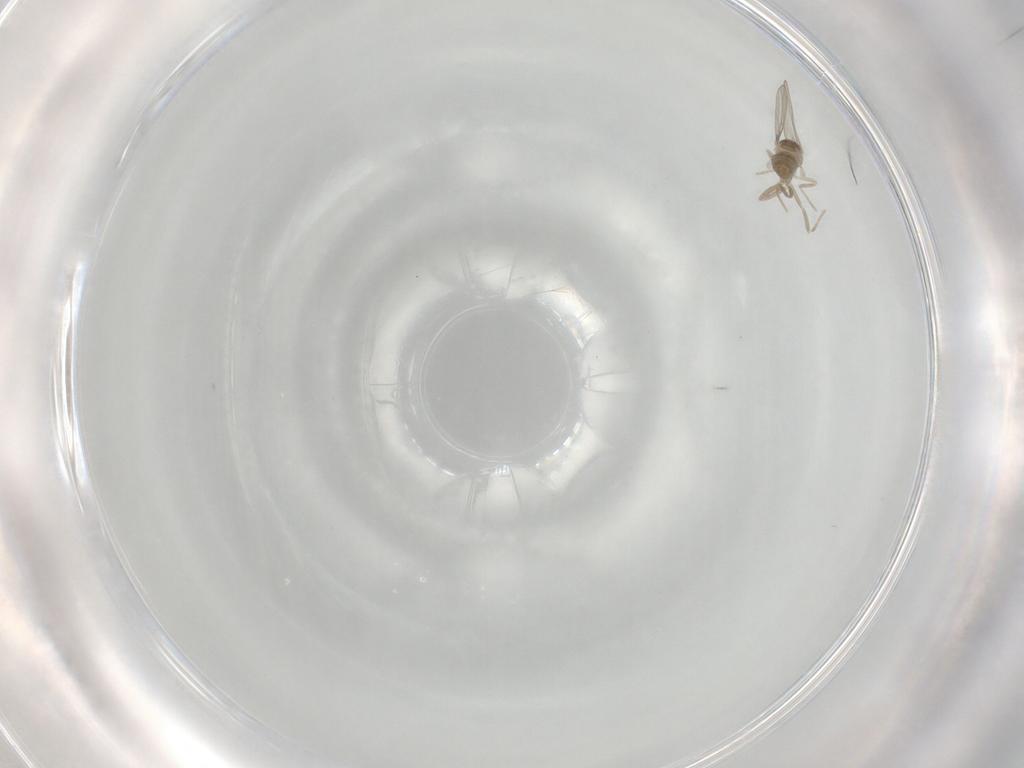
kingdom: Animalia
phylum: Arthropoda
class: Insecta
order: Diptera
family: Cecidomyiidae
